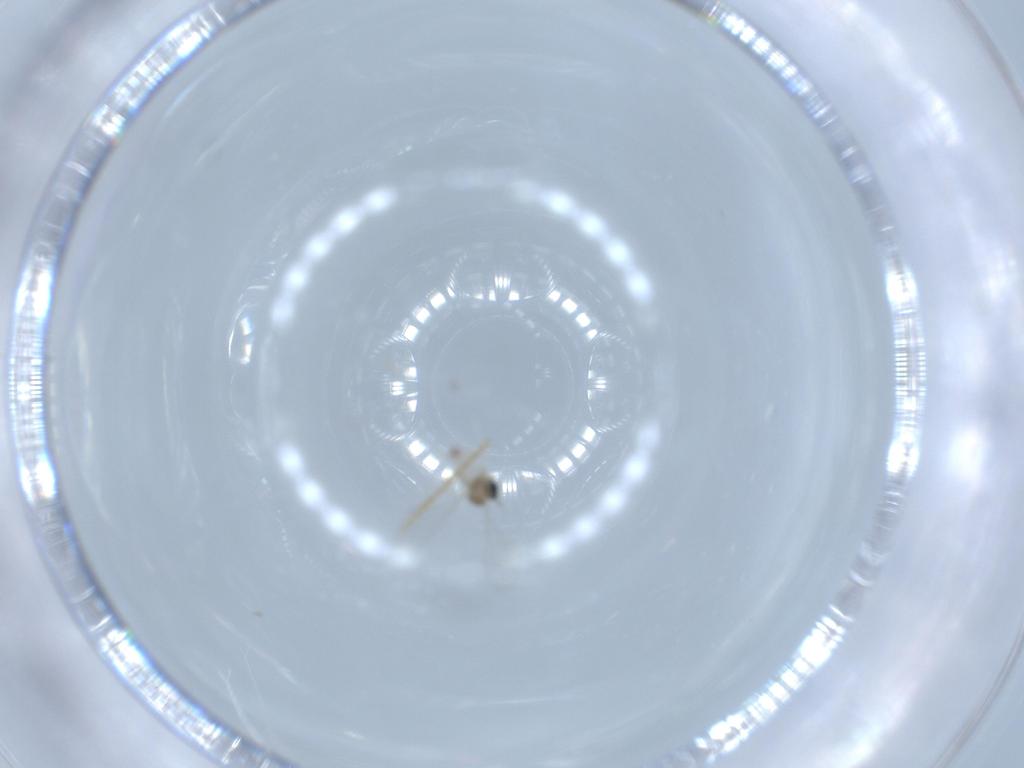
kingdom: Animalia
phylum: Arthropoda
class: Insecta
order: Diptera
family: Cecidomyiidae
